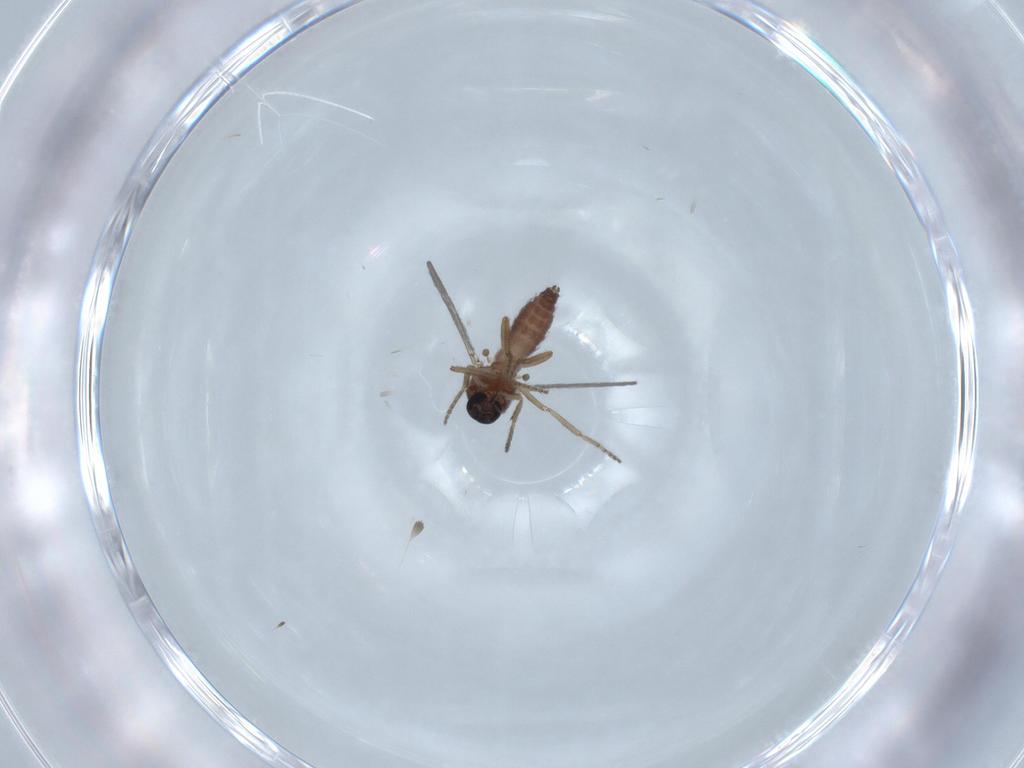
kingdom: Animalia
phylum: Arthropoda
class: Insecta
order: Diptera
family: Ceratopogonidae
